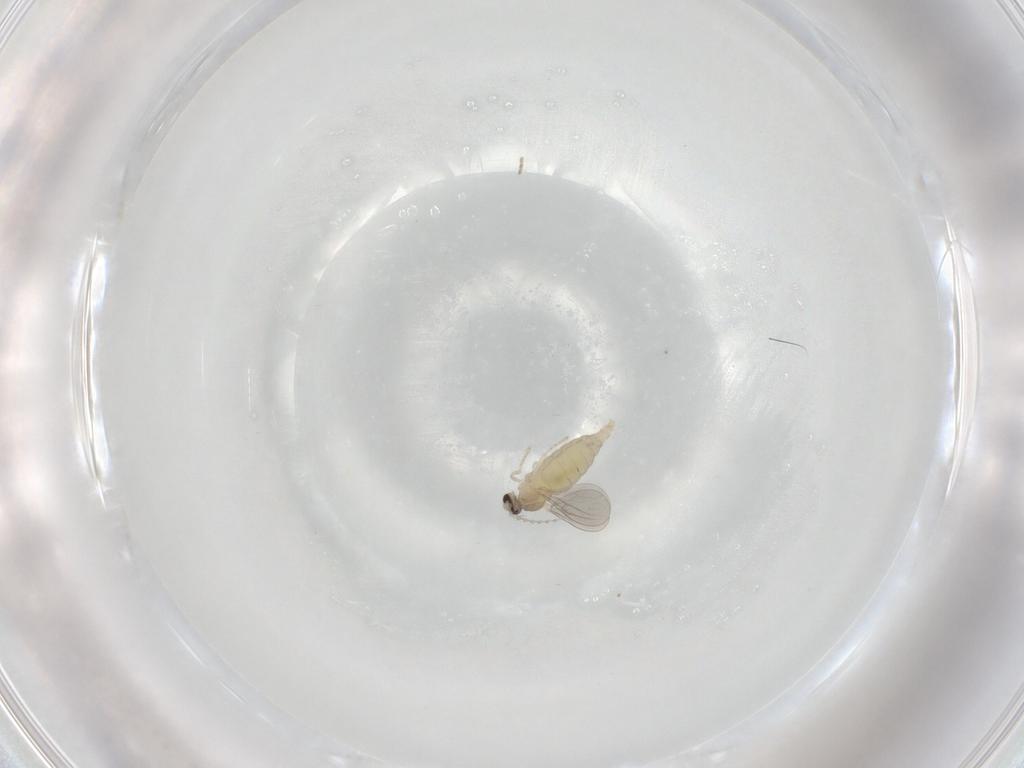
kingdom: Animalia
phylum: Arthropoda
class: Insecta
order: Diptera
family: Cecidomyiidae
